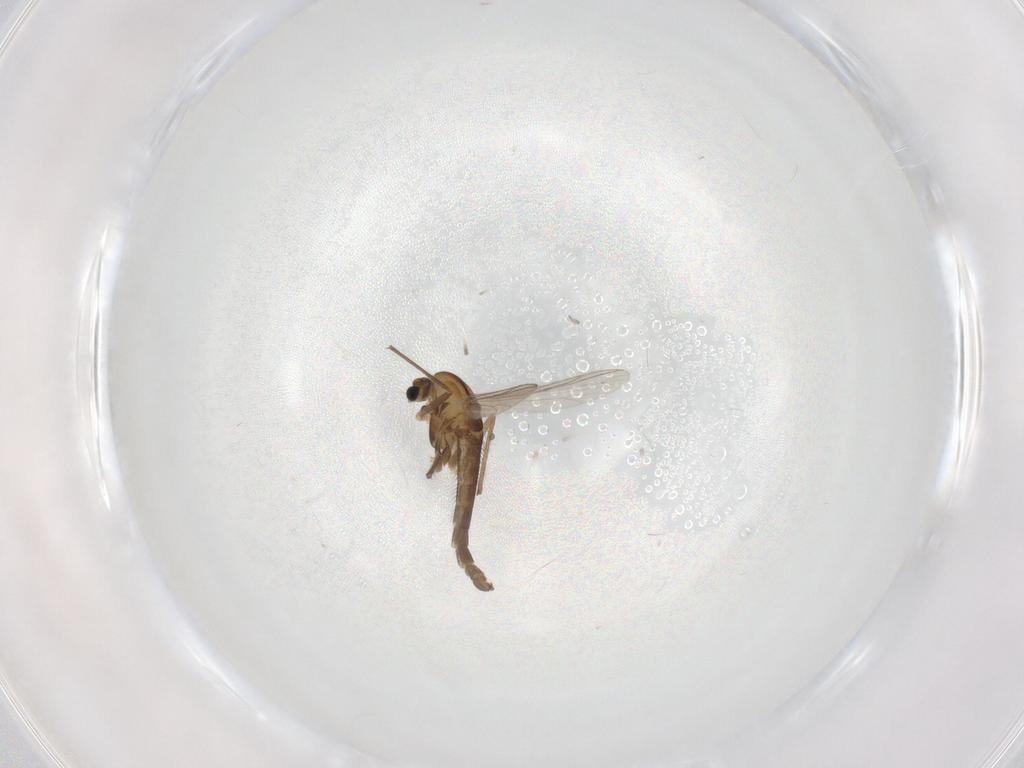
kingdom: Animalia
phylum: Arthropoda
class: Insecta
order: Diptera
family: Chironomidae
